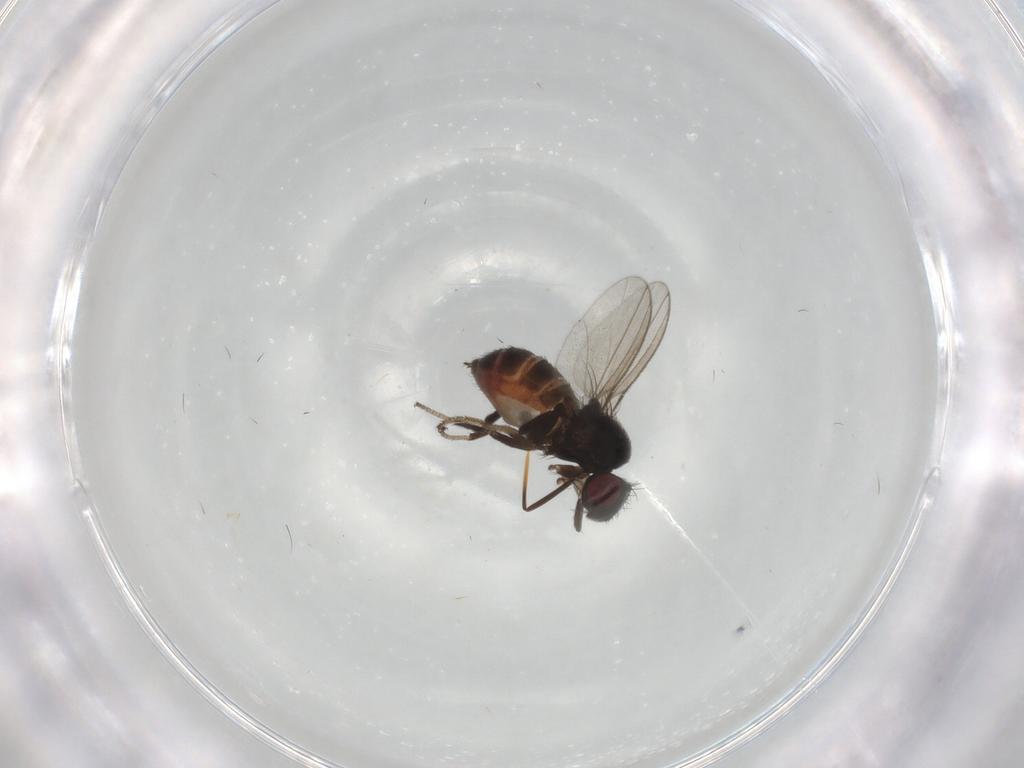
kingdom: Animalia
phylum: Arthropoda
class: Insecta
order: Diptera
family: Milichiidae
